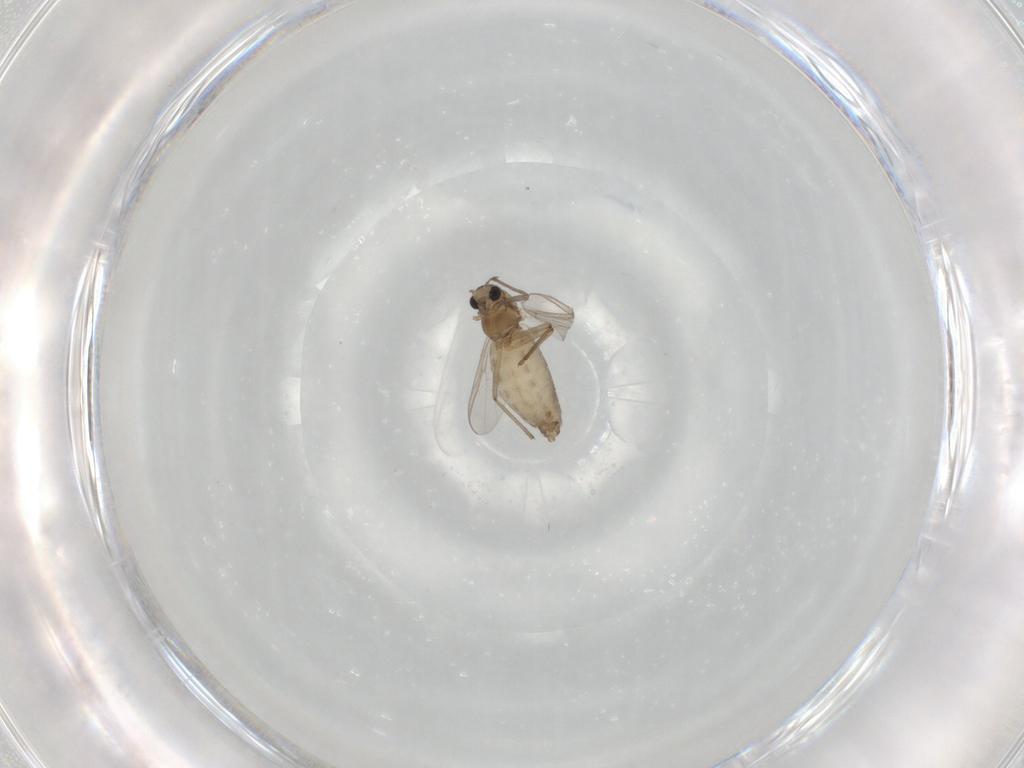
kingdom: Animalia
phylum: Arthropoda
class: Insecta
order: Diptera
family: Chironomidae
